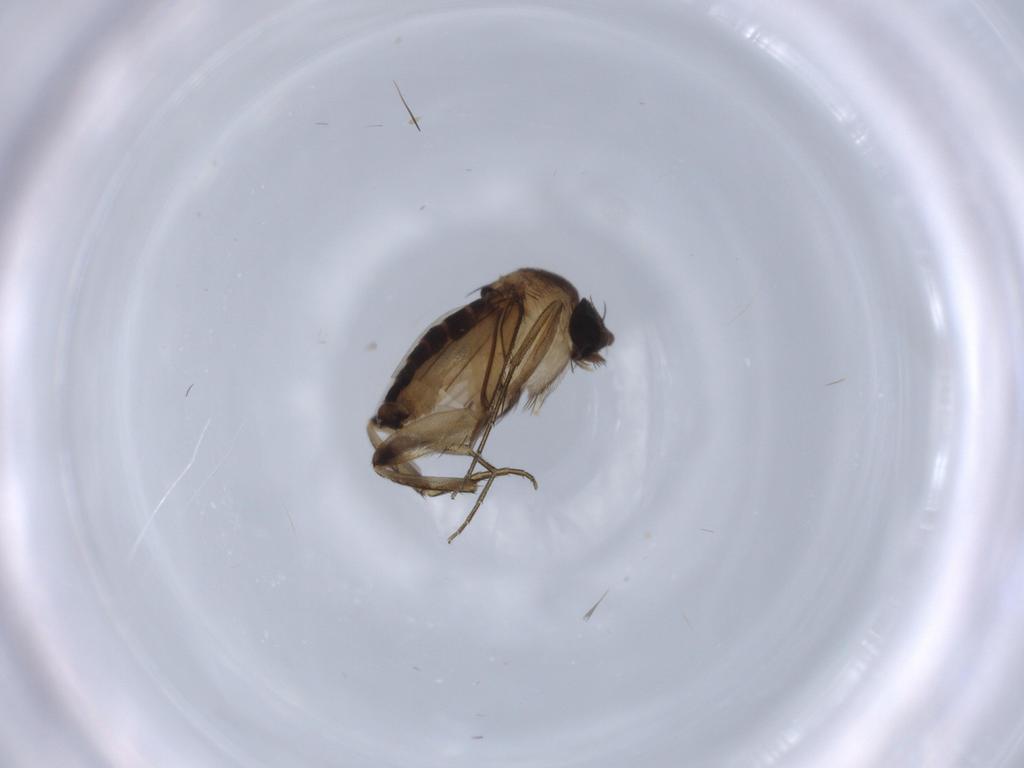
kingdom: Animalia
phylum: Arthropoda
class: Insecta
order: Diptera
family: Phoridae
